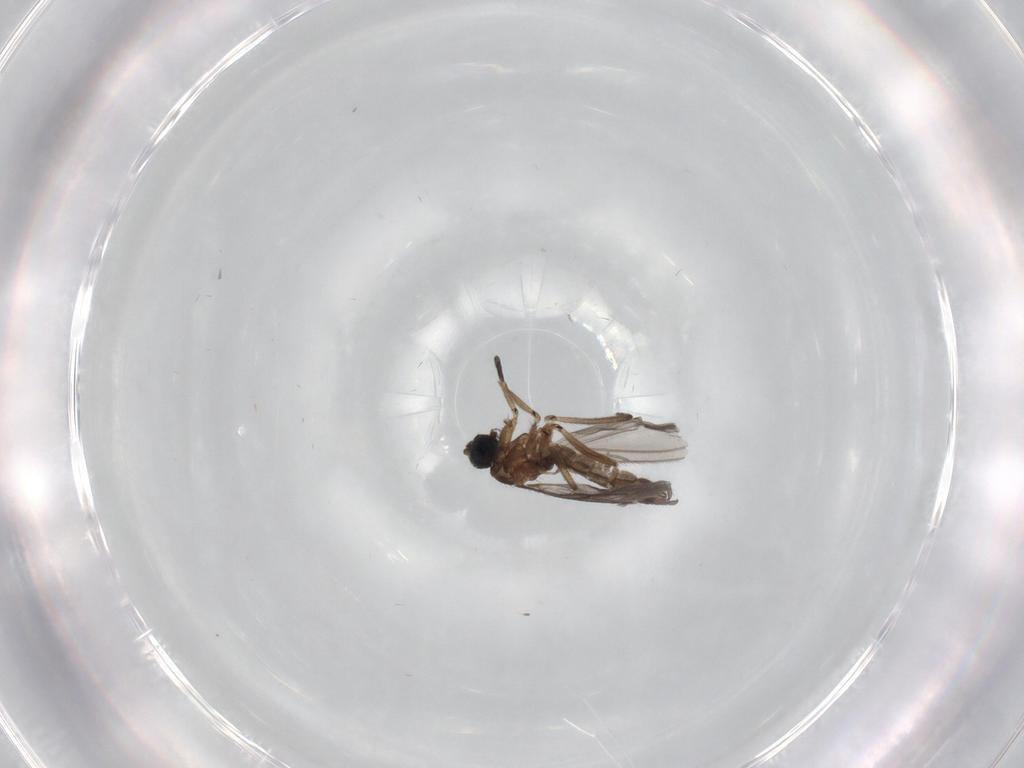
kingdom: Animalia
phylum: Arthropoda
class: Insecta
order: Diptera
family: Sciaridae
